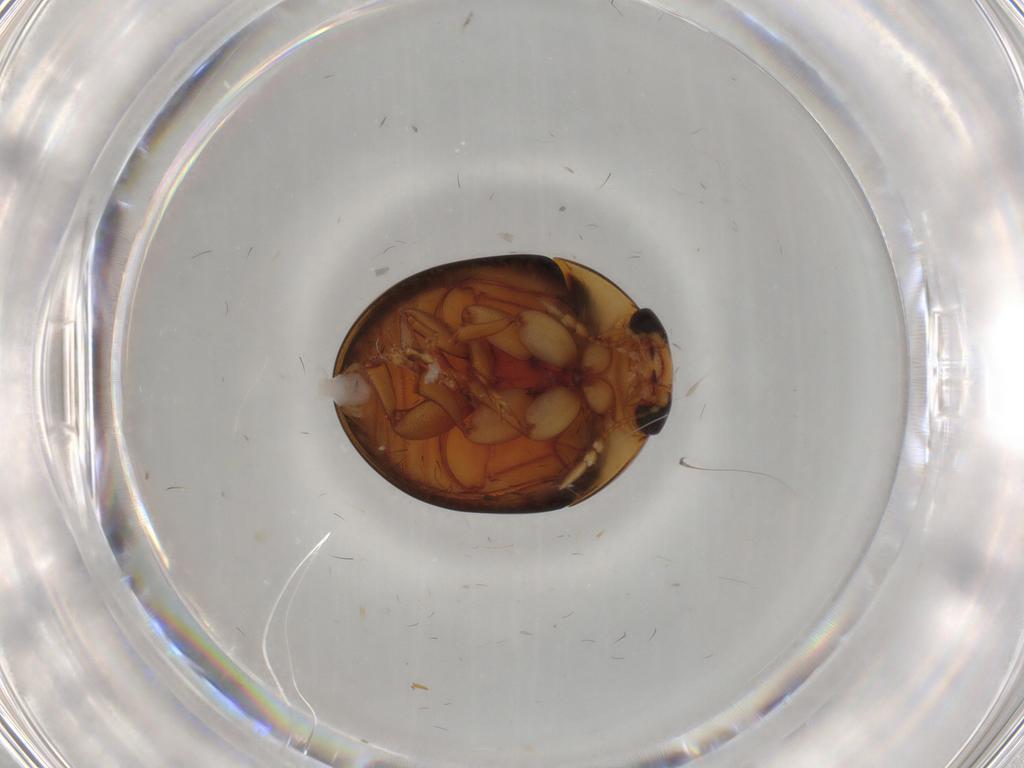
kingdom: Animalia
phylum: Arthropoda
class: Insecta
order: Coleoptera
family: Phalacridae
